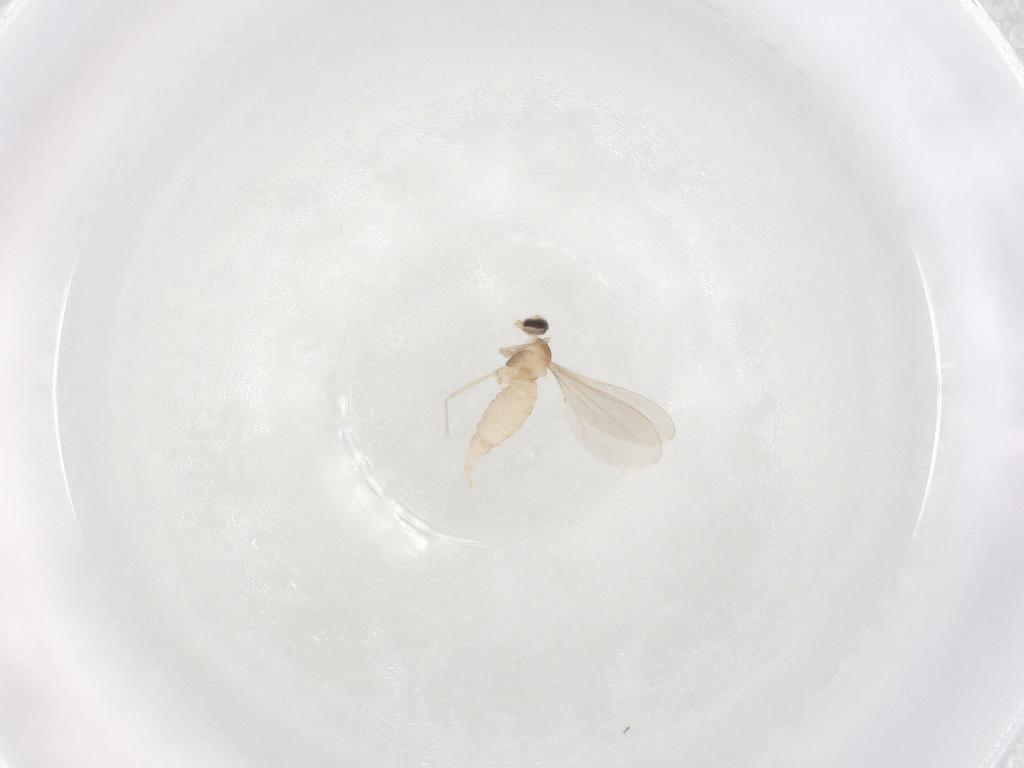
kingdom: Animalia
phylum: Arthropoda
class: Insecta
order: Diptera
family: Cecidomyiidae
